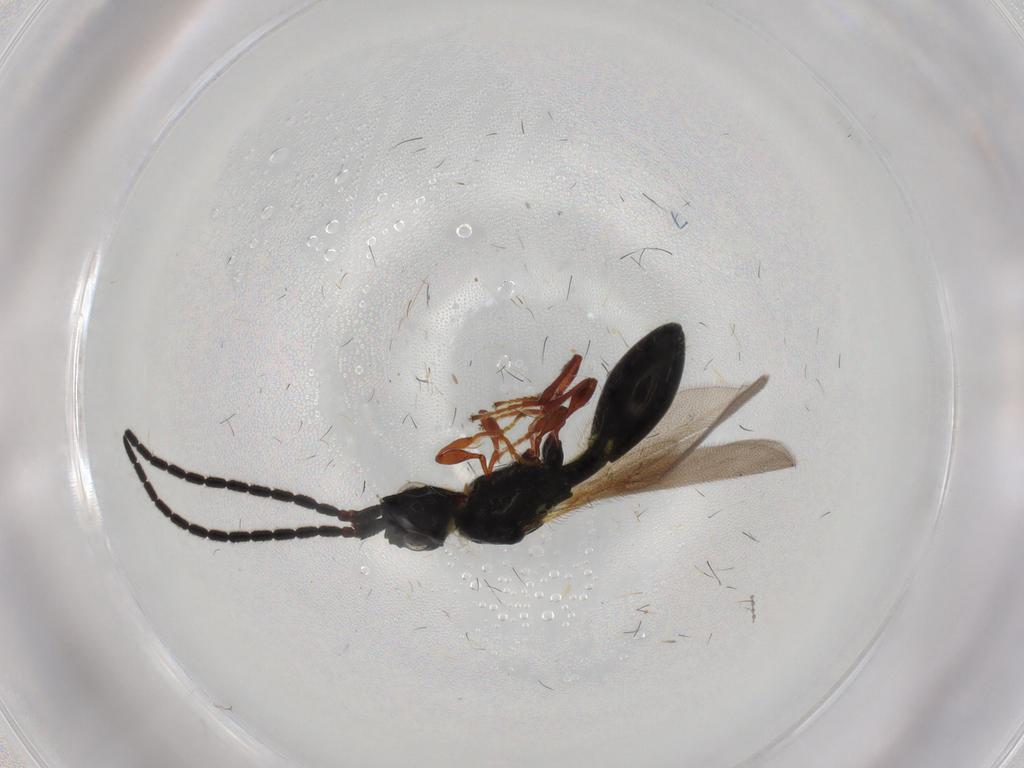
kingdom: Animalia
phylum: Arthropoda
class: Insecta
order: Hymenoptera
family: Diapriidae
